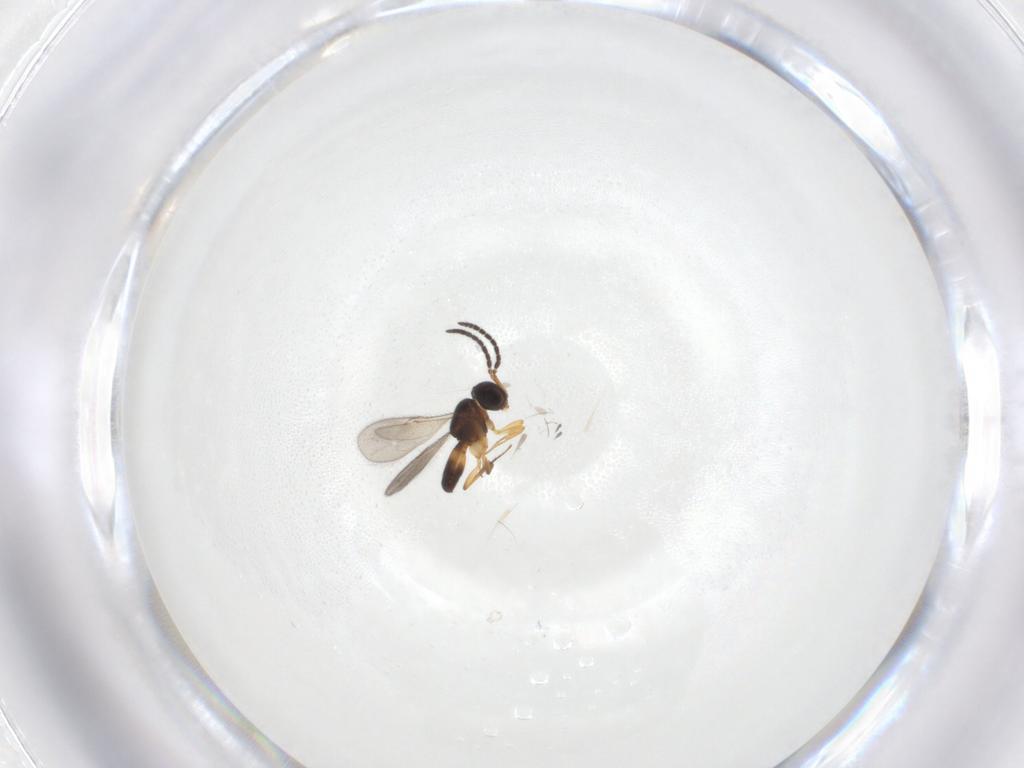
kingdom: Animalia
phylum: Arthropoda
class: Insecta
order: Hymenoptera
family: Scelionidae
